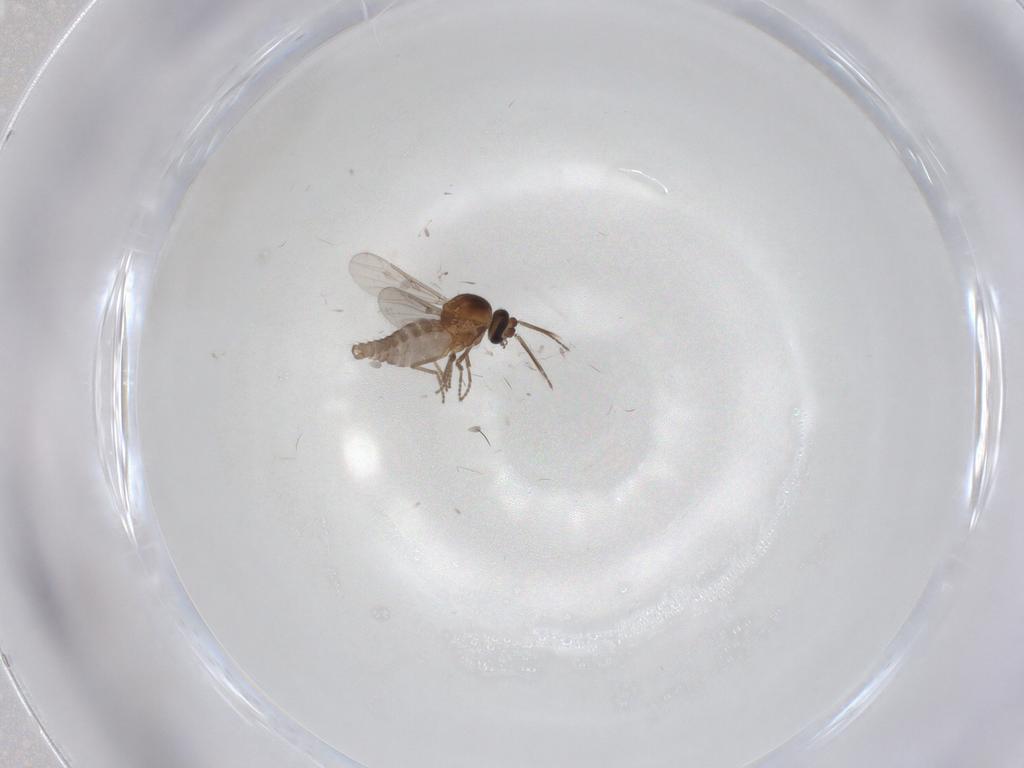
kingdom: Animalia
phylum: Arthropoda
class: Insecta
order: Diptera
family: Ceratopogonidae
